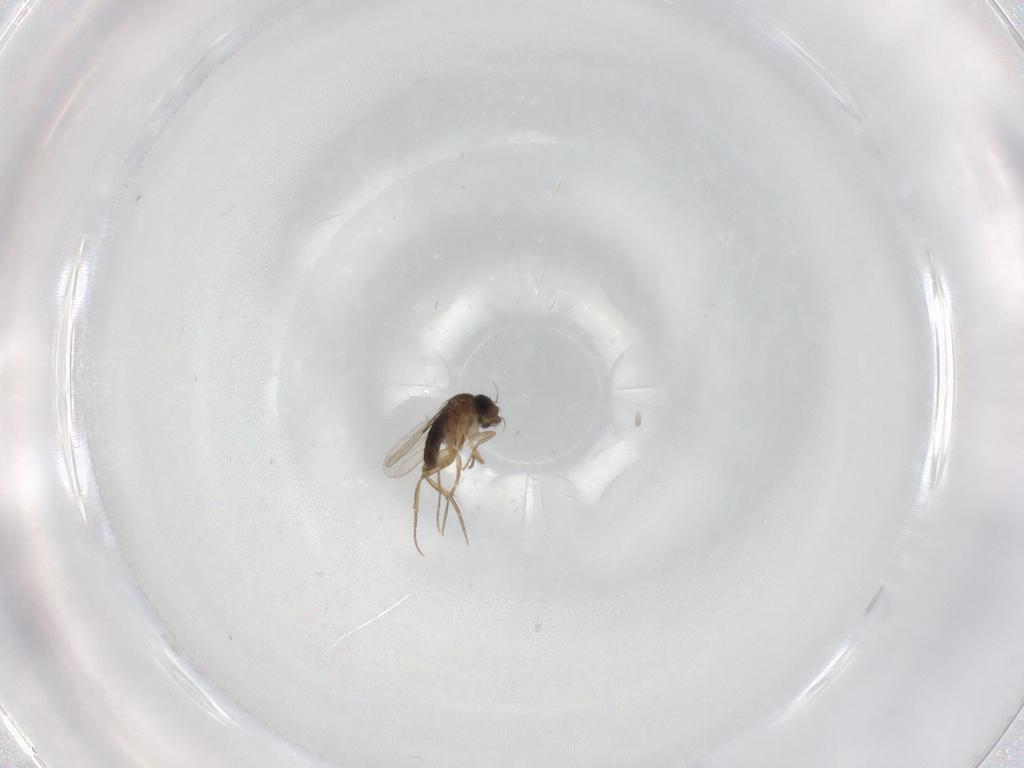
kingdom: Animalia
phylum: Arthropoda
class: Insecta
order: Diptera
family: Phoridae
